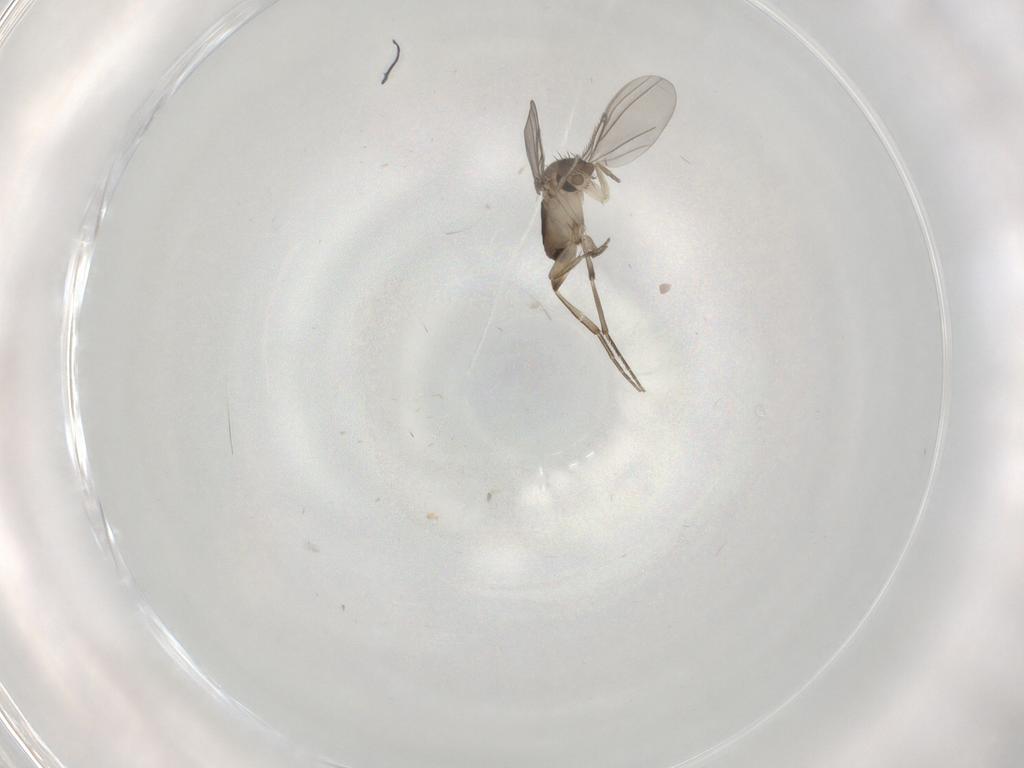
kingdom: Animalia
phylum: Arthropoda
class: Insecta
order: Diptera
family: Phoridae
